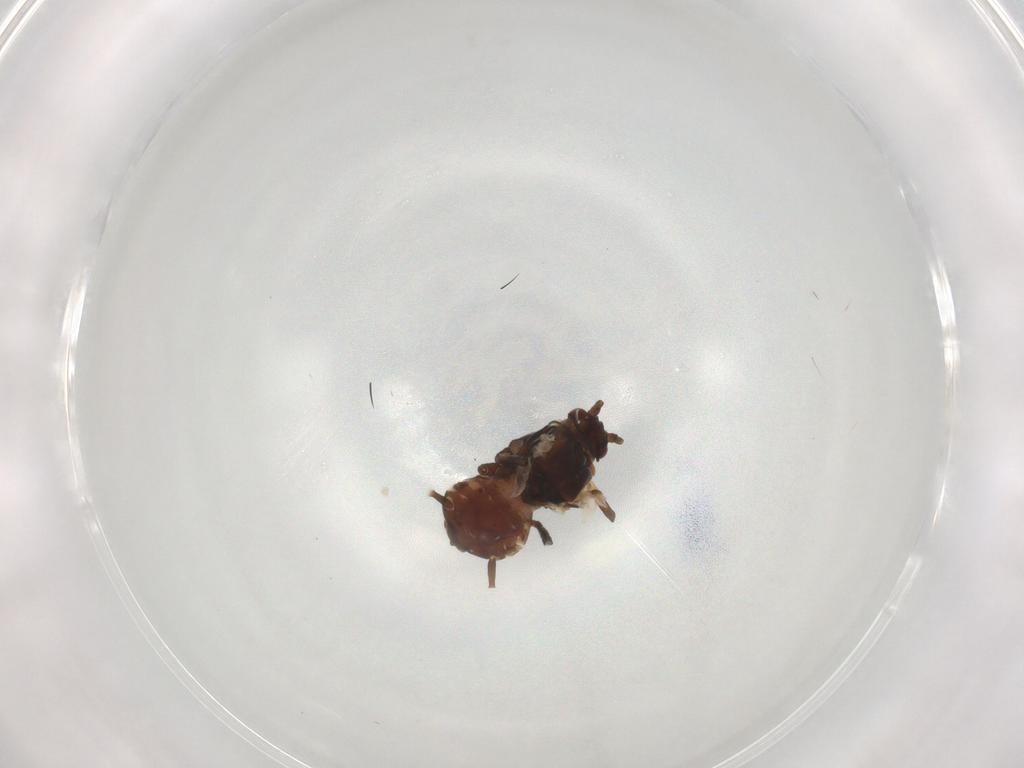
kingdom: Animalia
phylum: Arthropoda
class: Insecta
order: Hemiptera
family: Aphididae
